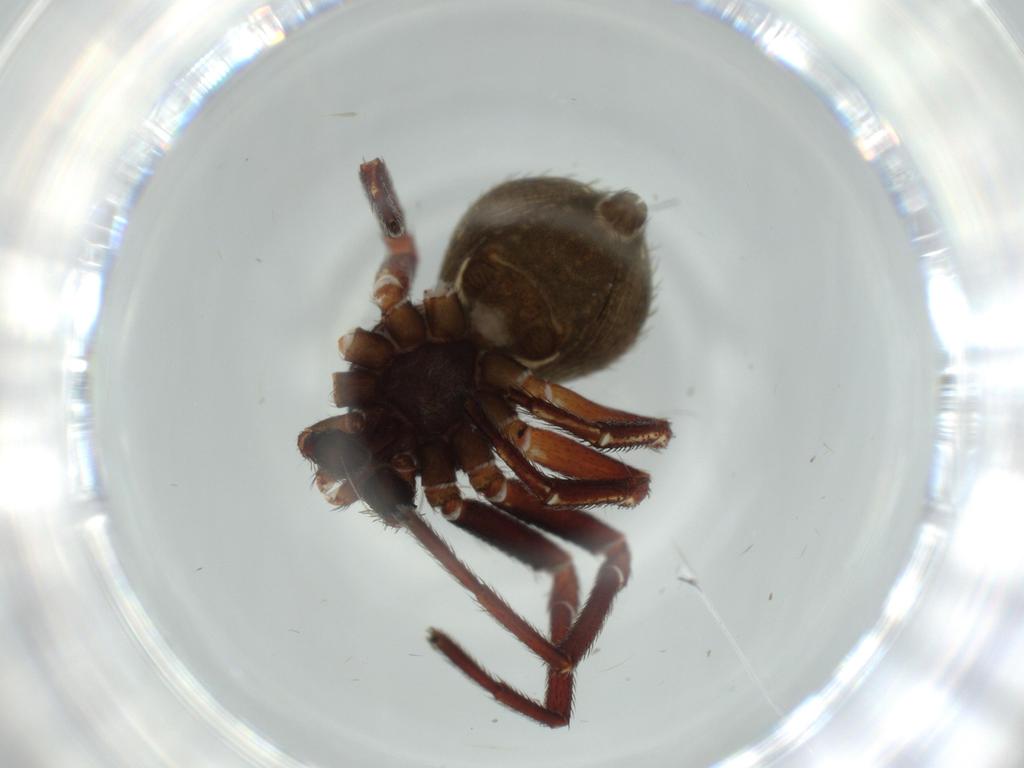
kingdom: Animalia
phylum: Arthropoda
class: Arachnida
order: Araneae
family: Thomisidae
